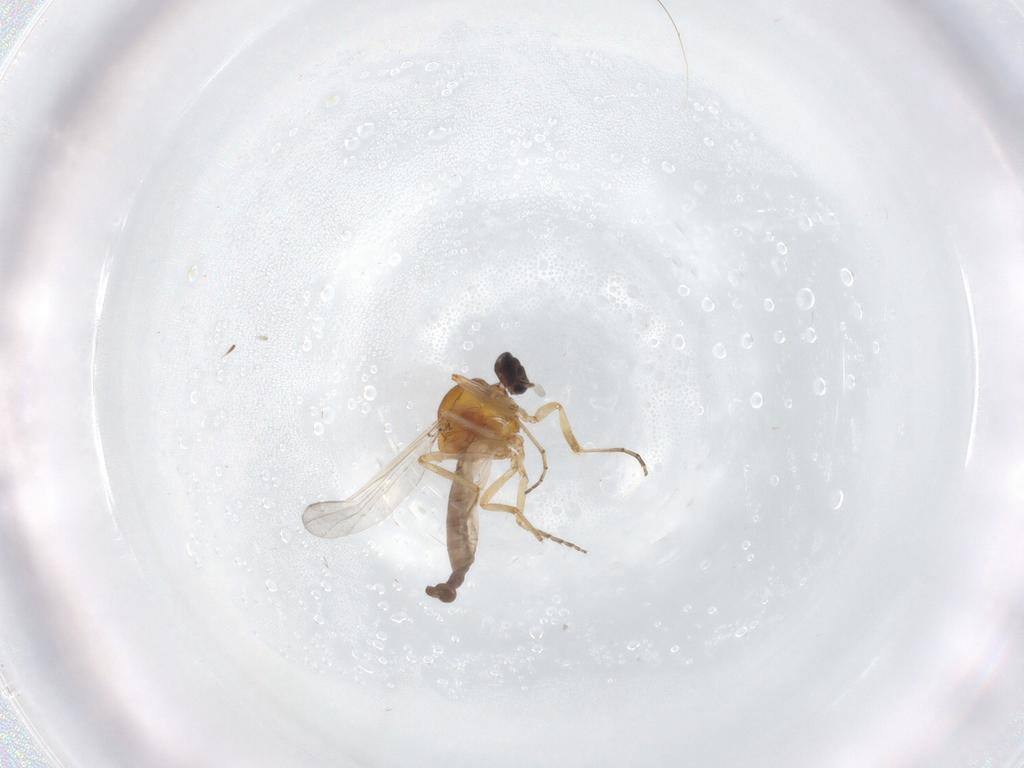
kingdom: Animalia
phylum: Arthropoda
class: Insecta
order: Diptera
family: Ceratopogonidae
